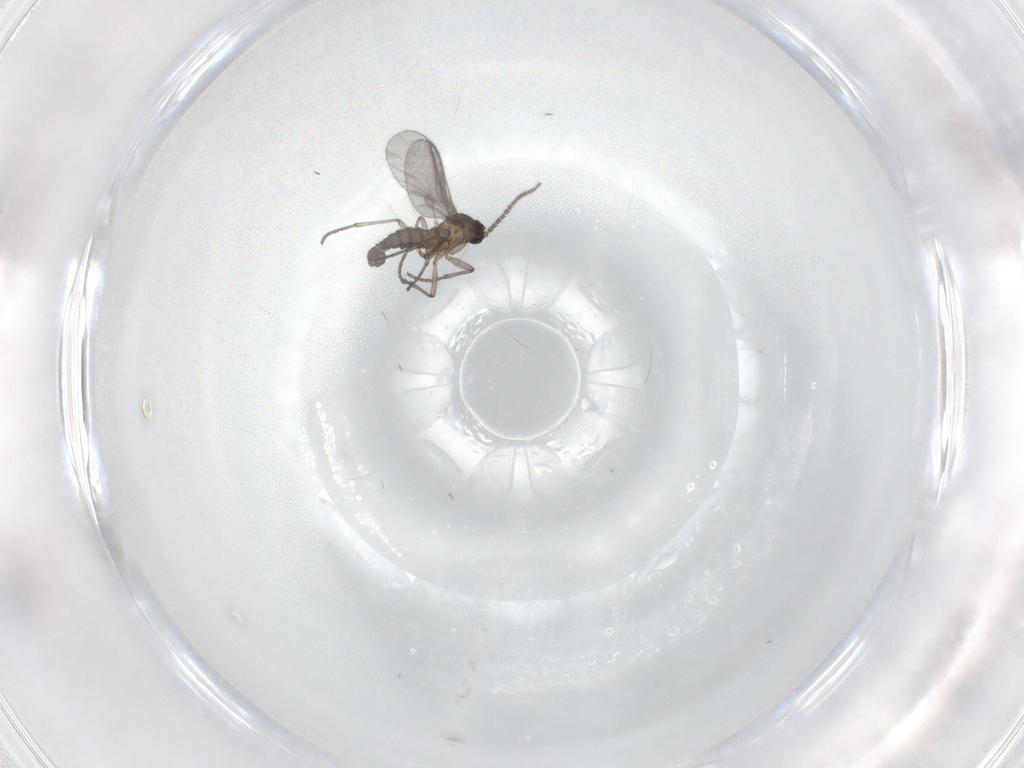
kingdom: Animalia
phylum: Arthropoda
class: Insecta
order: Diptera
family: Sciaridae
